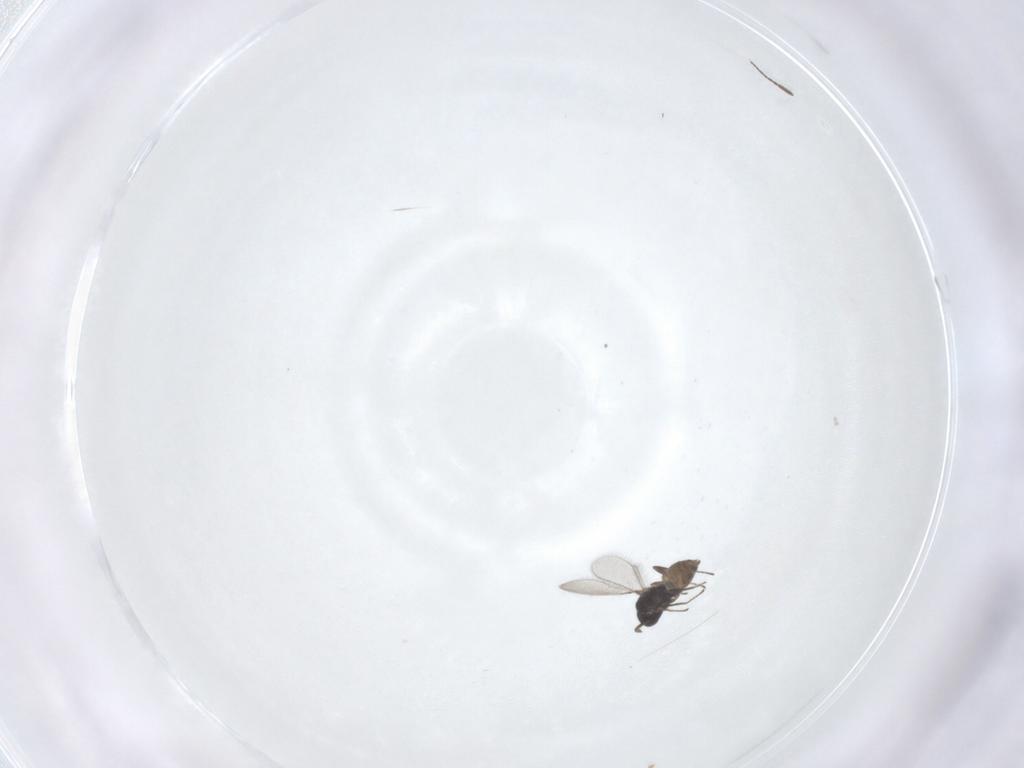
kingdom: Animalia
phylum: Arthropoda
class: Insecta
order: Hymenoptera
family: Mymaridae
